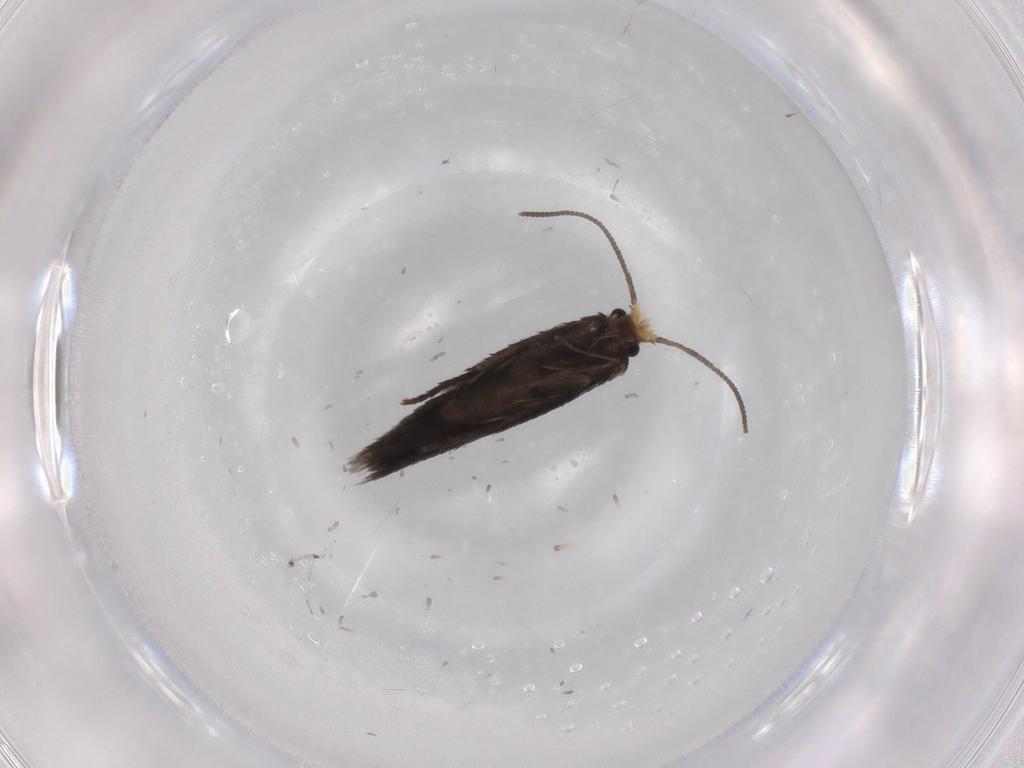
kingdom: Animalia
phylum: Arthropoda
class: Insecta
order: Lepidoptera
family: Nepticulidae
